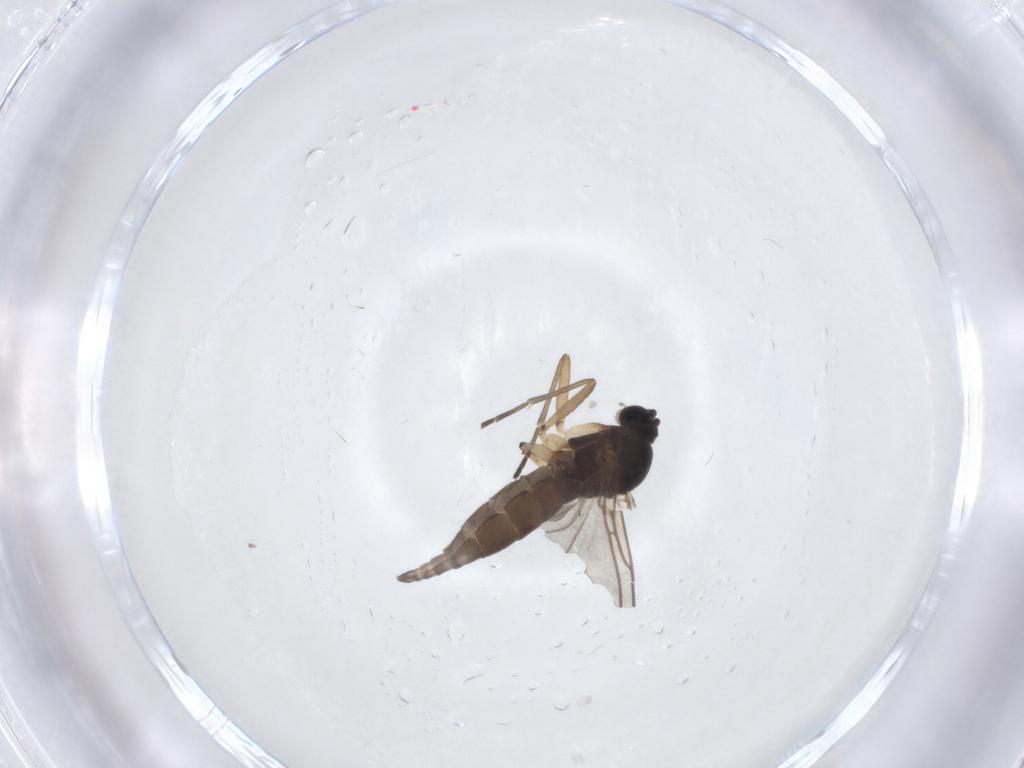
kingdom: Animalia
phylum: Arthropoda
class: Insecta
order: Diptera
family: Sciaridae
